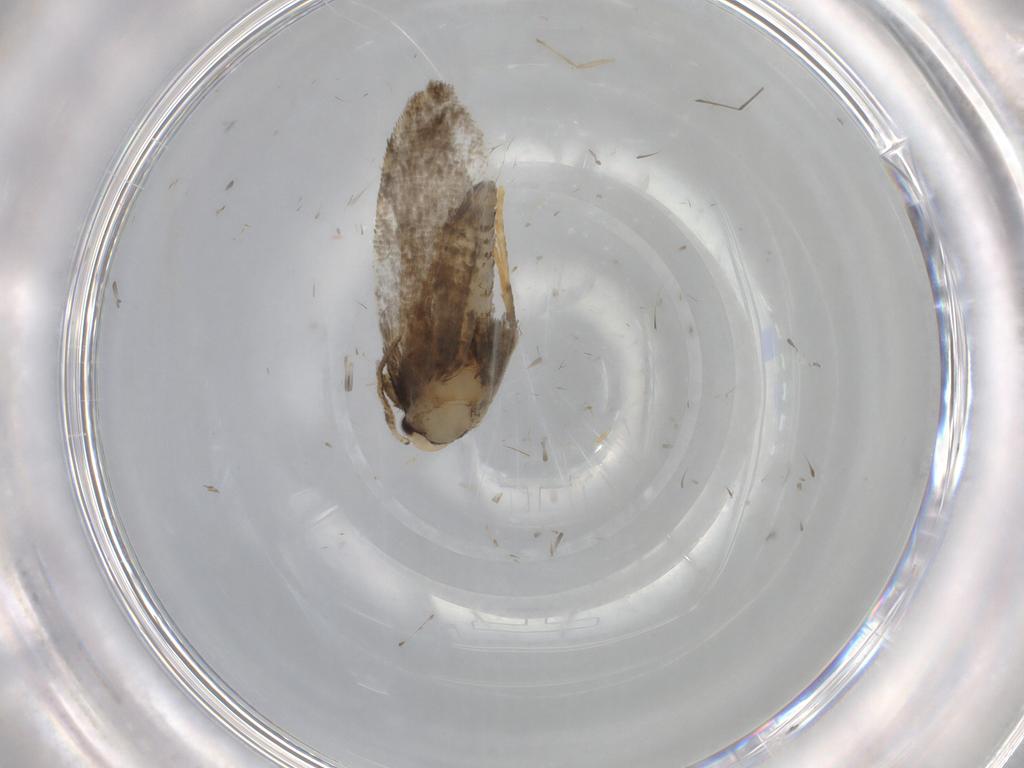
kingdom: Animalia
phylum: Arthropoda
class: Insecta
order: Lepidoptera
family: Psychidae
